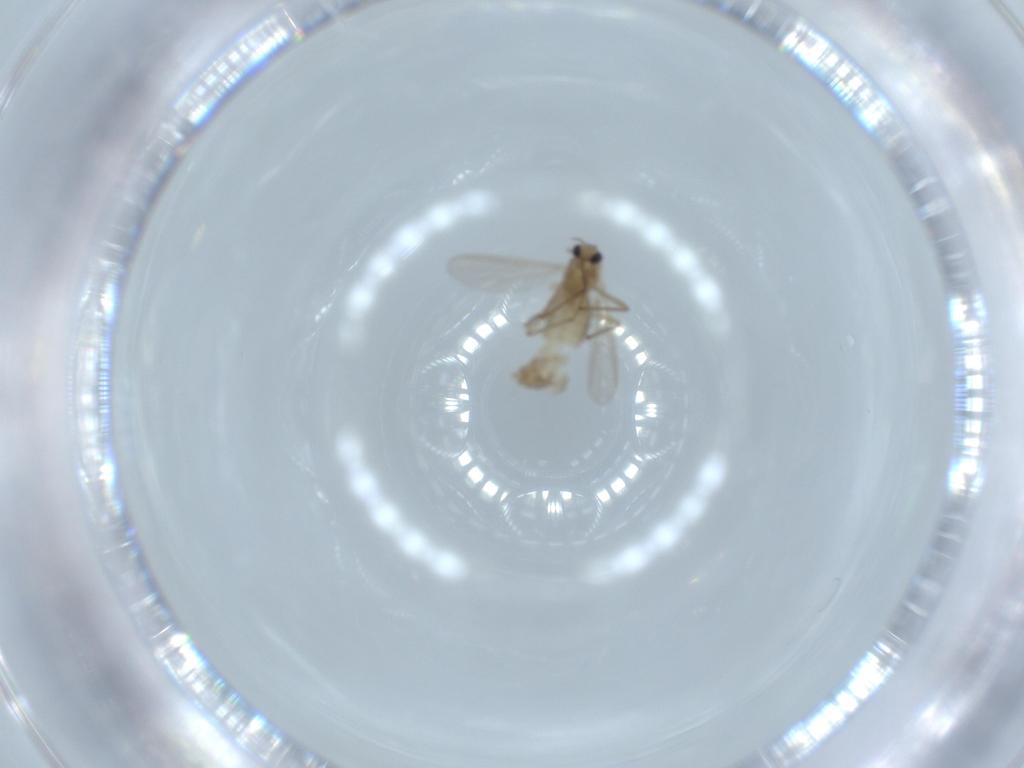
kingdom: Animalia
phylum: Arthropoda
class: Insecta
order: Diptera
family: Chironomidae
